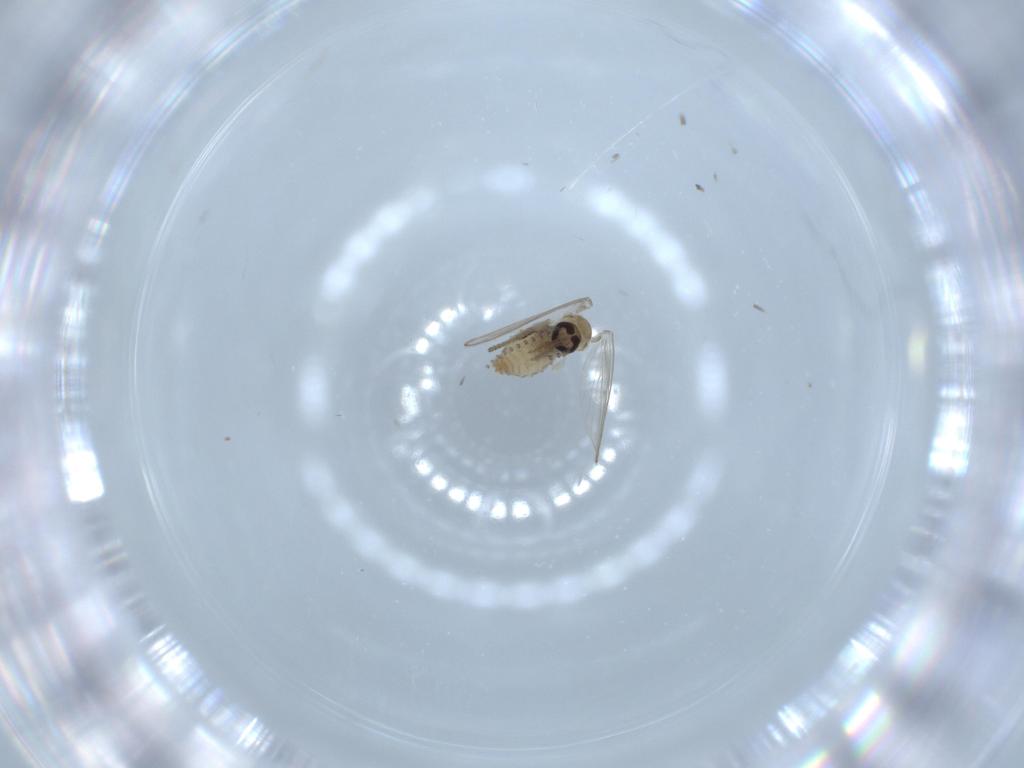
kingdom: Animalia
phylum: Arthropoda
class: Insecta
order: Diptera
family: Psychodidae
